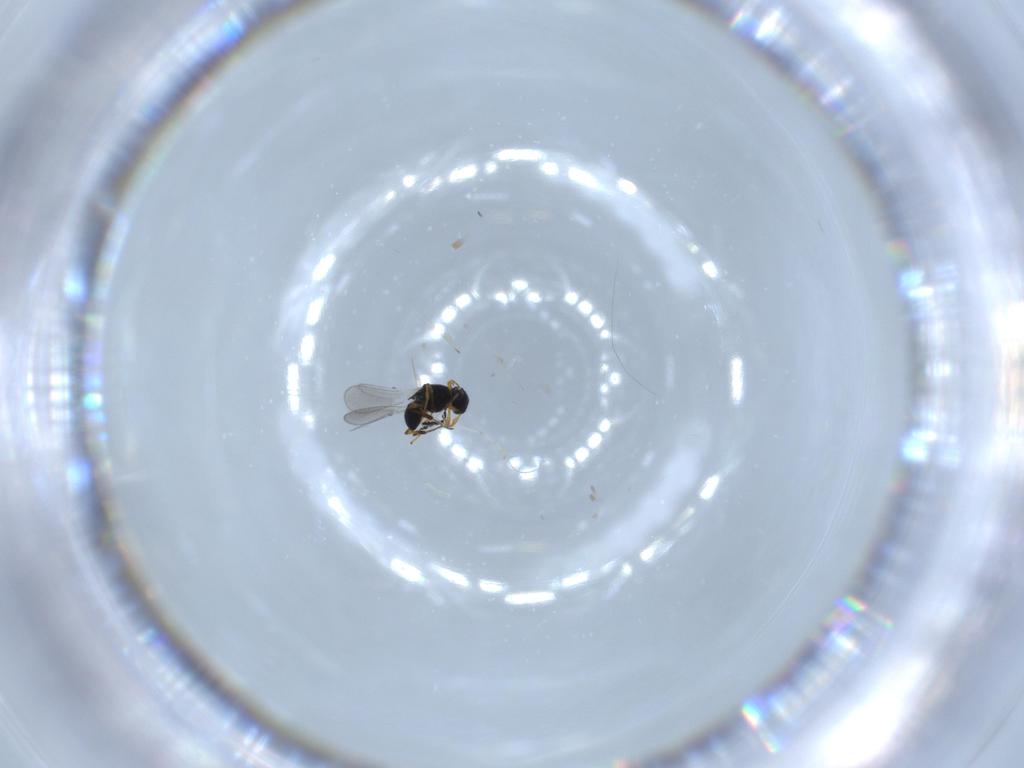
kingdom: Animalia
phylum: Arthropoda
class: Insecta
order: Hymenoptera
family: Platygastridae
